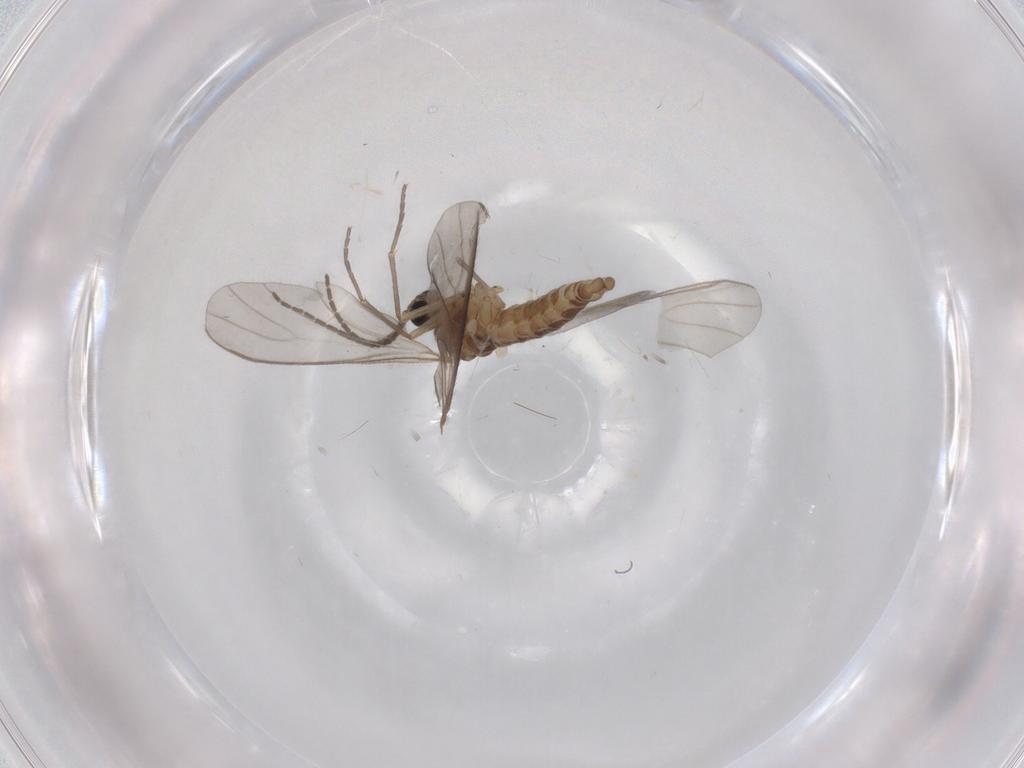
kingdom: Animalia
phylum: Arthropoda
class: Insecta
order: Diptera
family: Sciaridae
